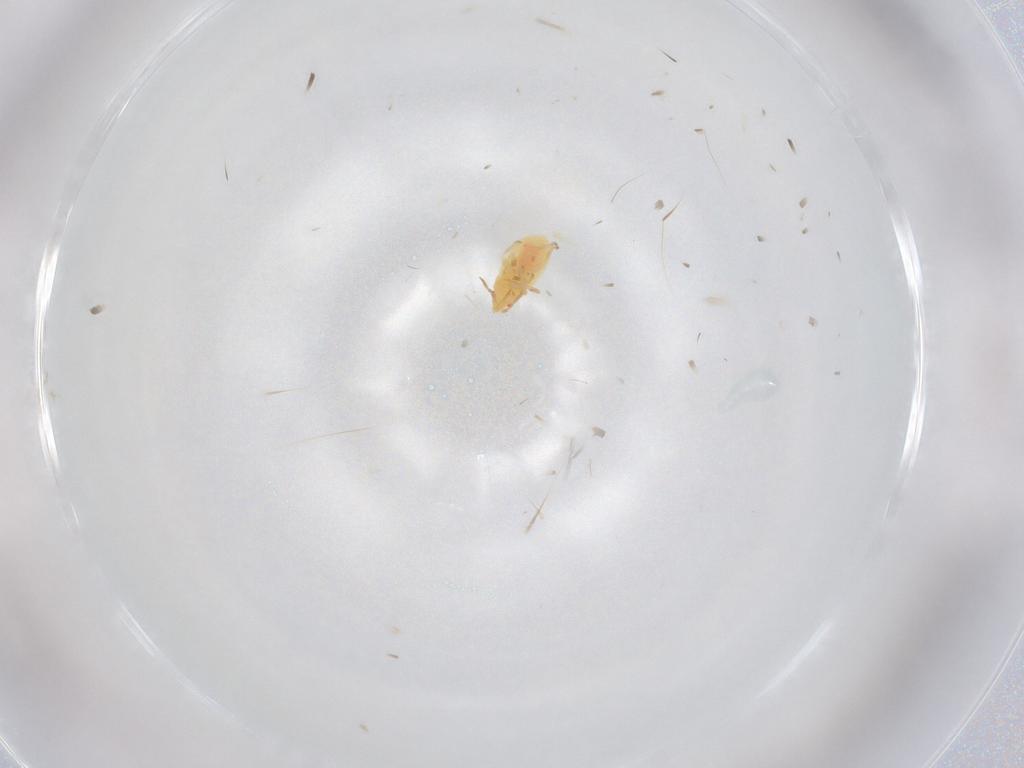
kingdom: Animalia
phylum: Arthropoda
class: Insecta
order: Hemiptera
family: Anthocoridae
